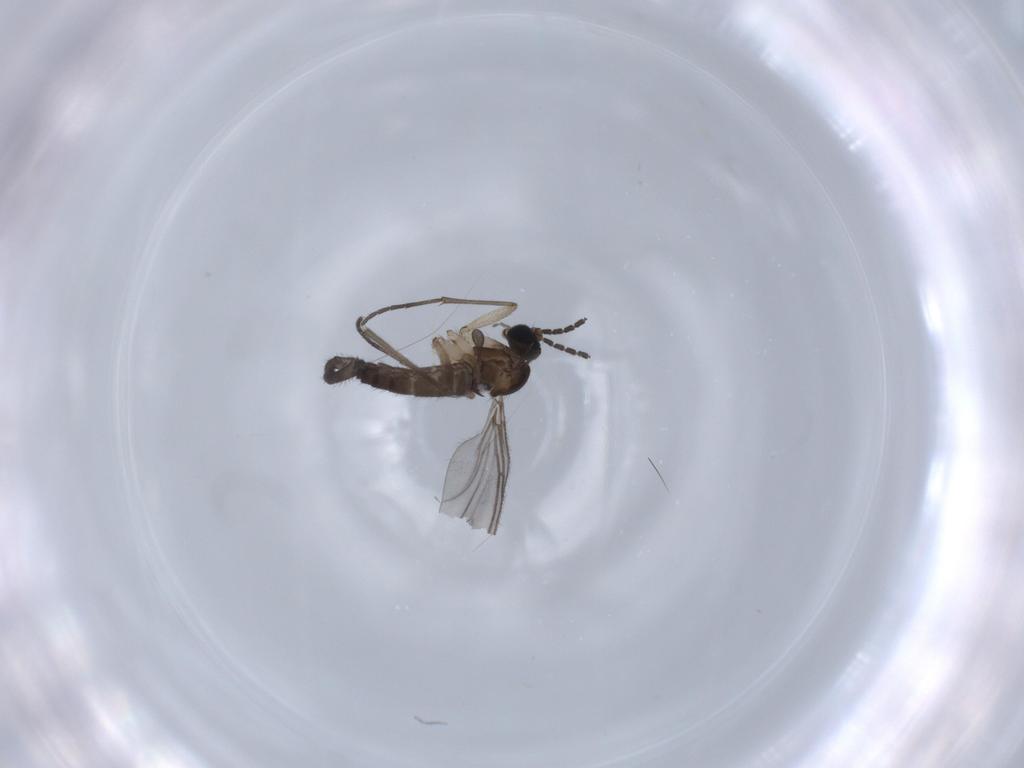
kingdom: Animalia
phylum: Arthropoda
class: Insecta
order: Diptera
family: Sciaridae
